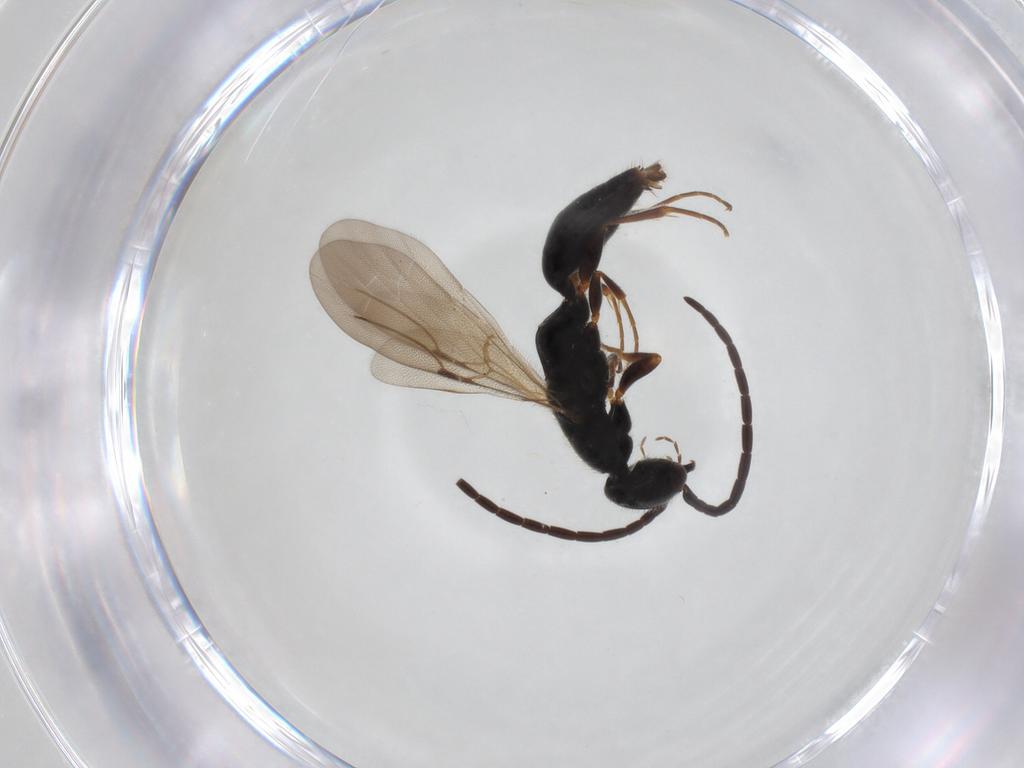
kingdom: Animalia
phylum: Arthropoda
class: Insecta
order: Hymenoptera
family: Bethylidae
